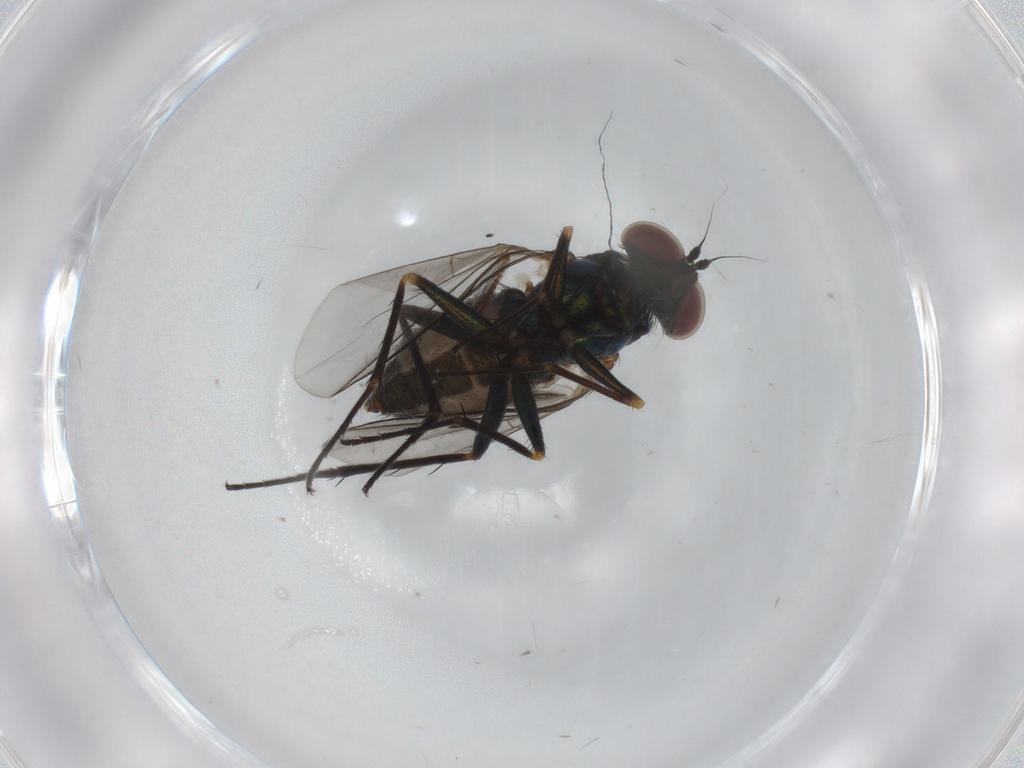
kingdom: Animalia
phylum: Arthropoda
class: Insecta
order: Diptera
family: Dolichopodidae
